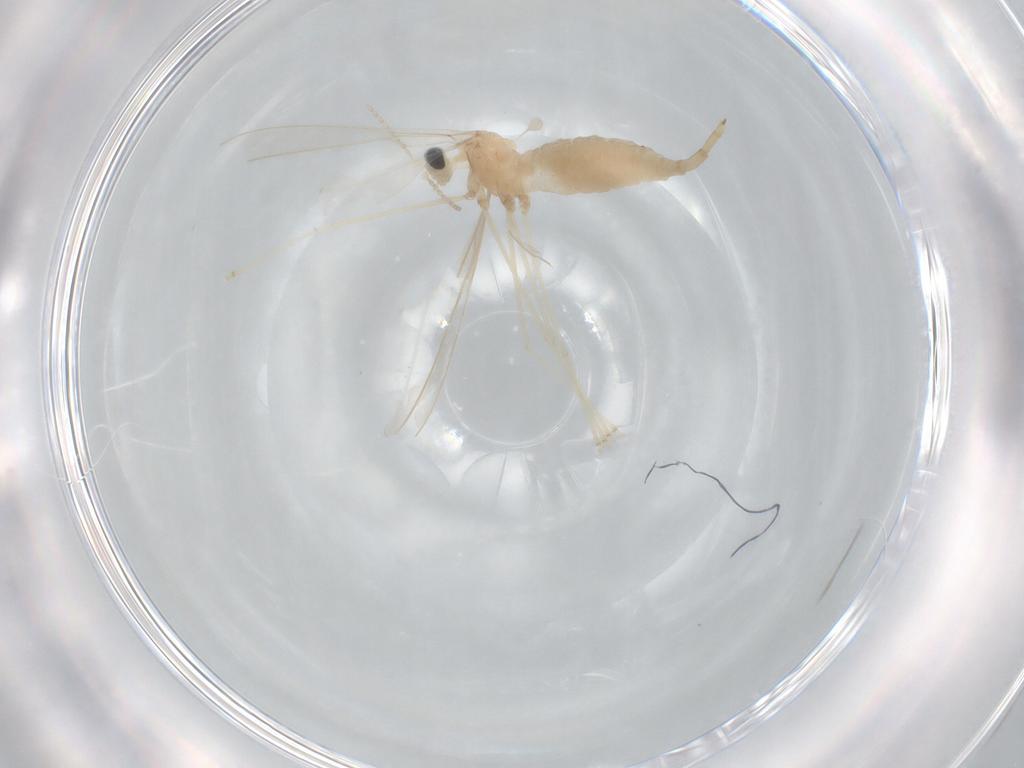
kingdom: Animalia
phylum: Arthropoda
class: Insecta
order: Diptera
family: Cecidomyiidae
